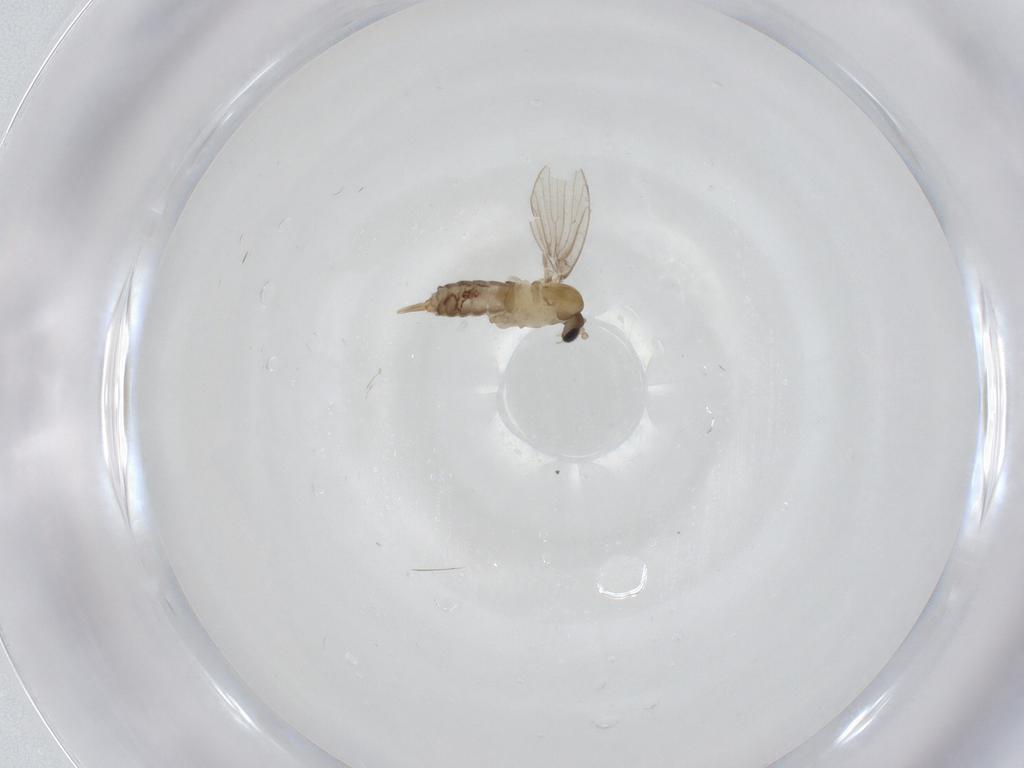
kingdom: Animalia
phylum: Arthropoda
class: Insecta
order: Diptera
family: Psychodidae
